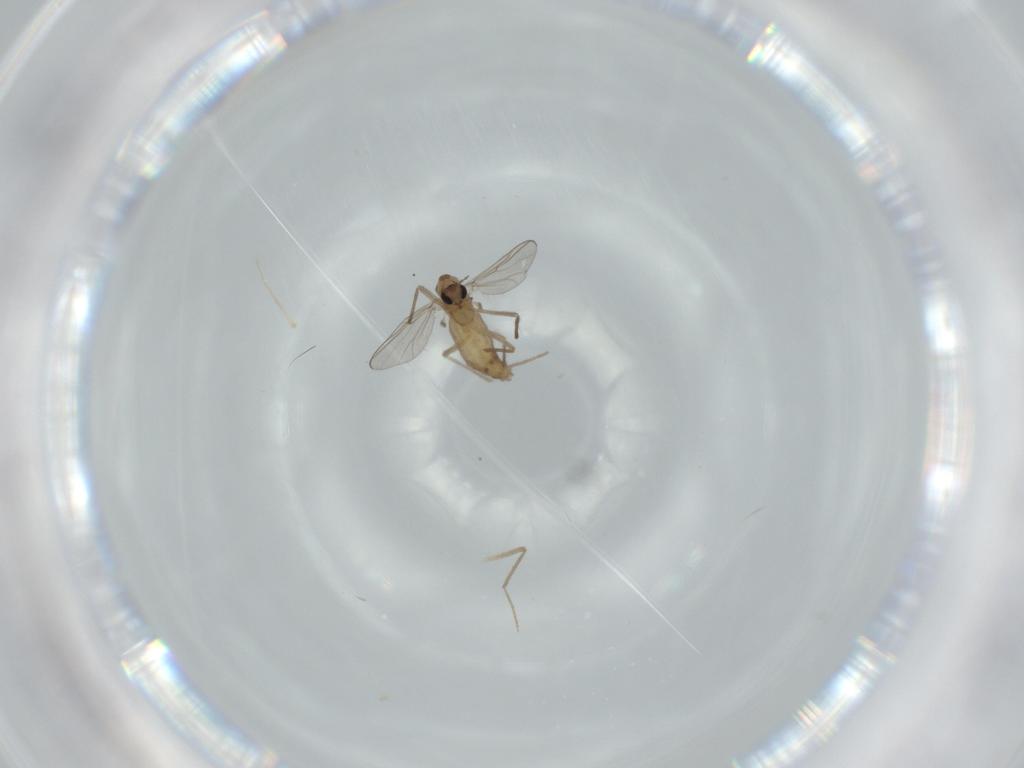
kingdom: Animalia
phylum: Arthropoda
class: Insecta
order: Diptera
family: Chironomidae
